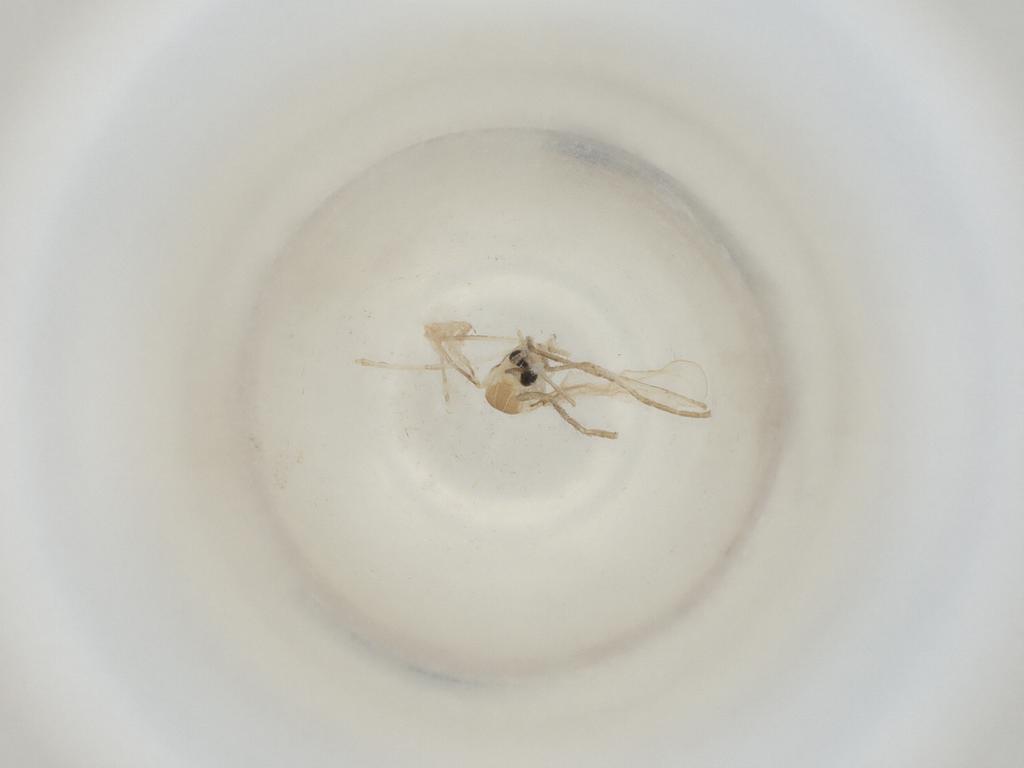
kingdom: Animalia
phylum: Arthropoda
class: Insecta
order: Diptera
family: Cecidomyiidae
